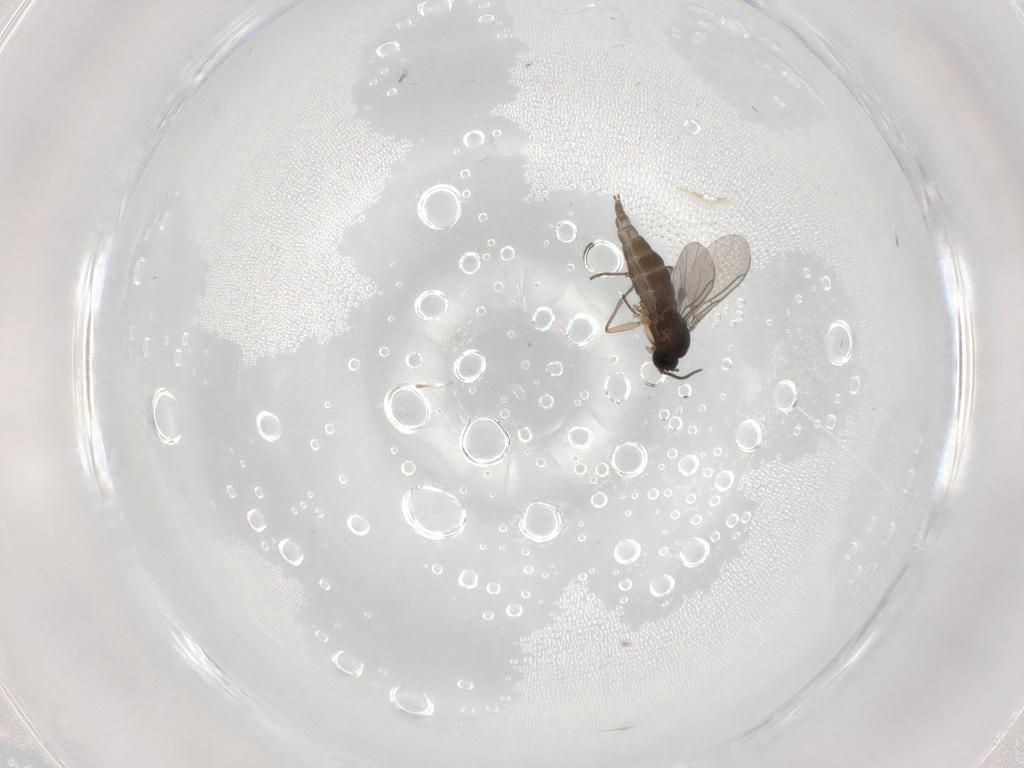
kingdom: Animalia
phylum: Arthropoda
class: Insecta
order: Diptera
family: Sciaridae
